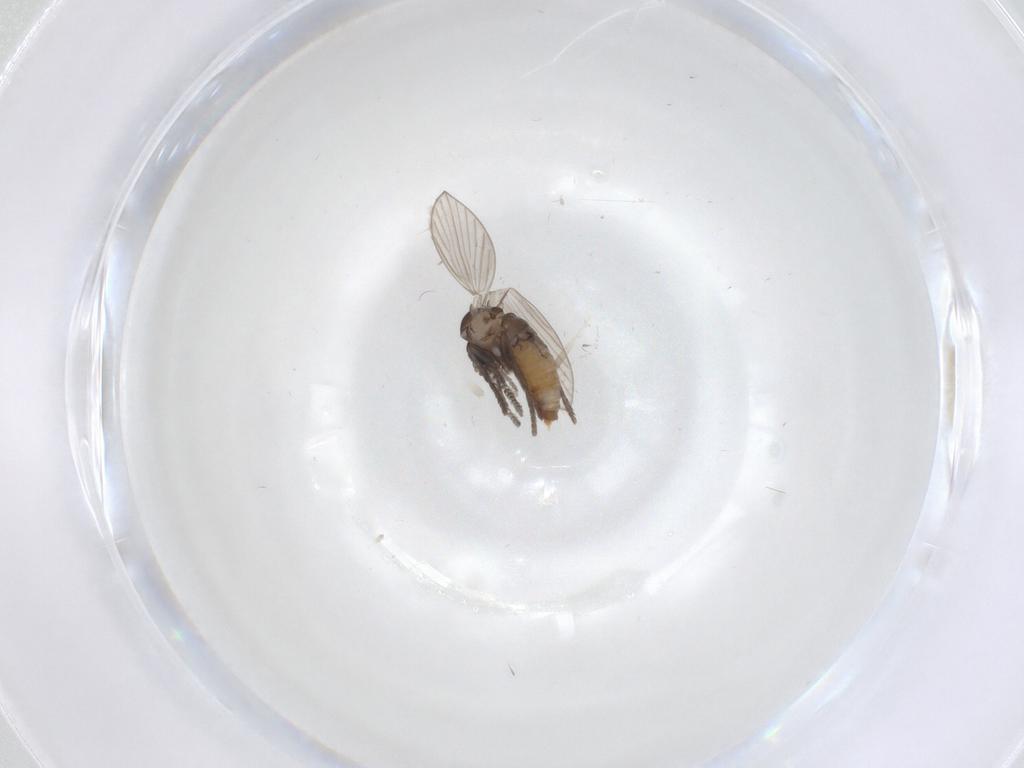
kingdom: Animalia
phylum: Arthropoda
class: Insecta
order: Diptera
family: Psychodidae
